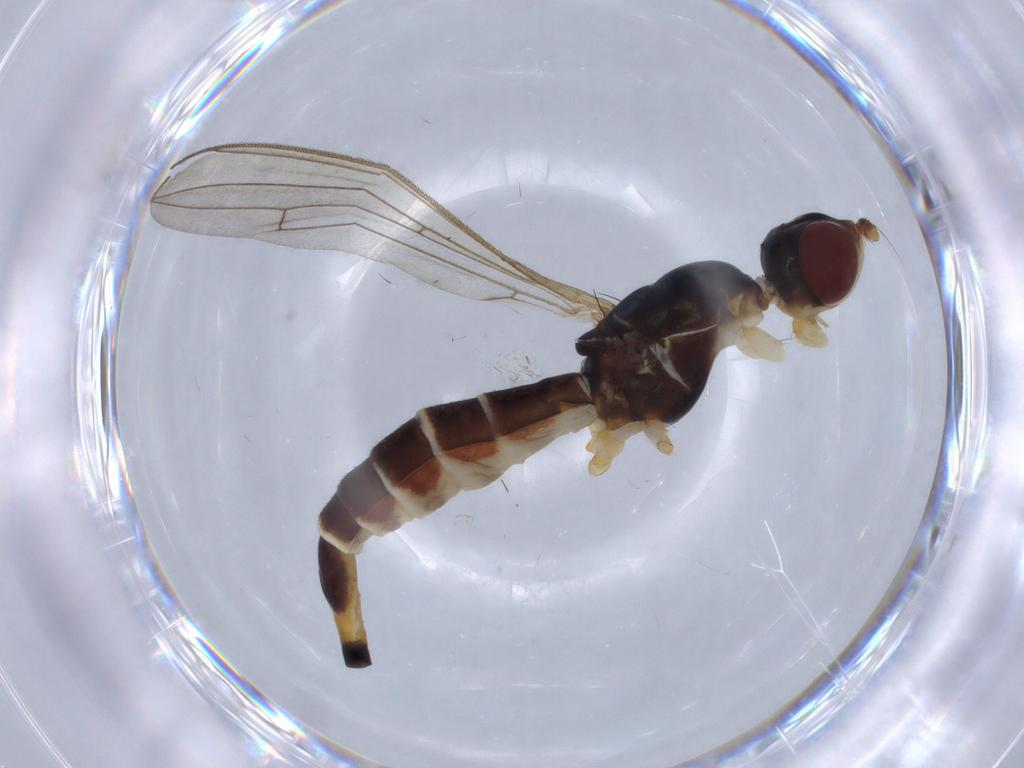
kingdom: Animalia
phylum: Arthropoda
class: Insecta
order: Diptera
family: Micropezidae
